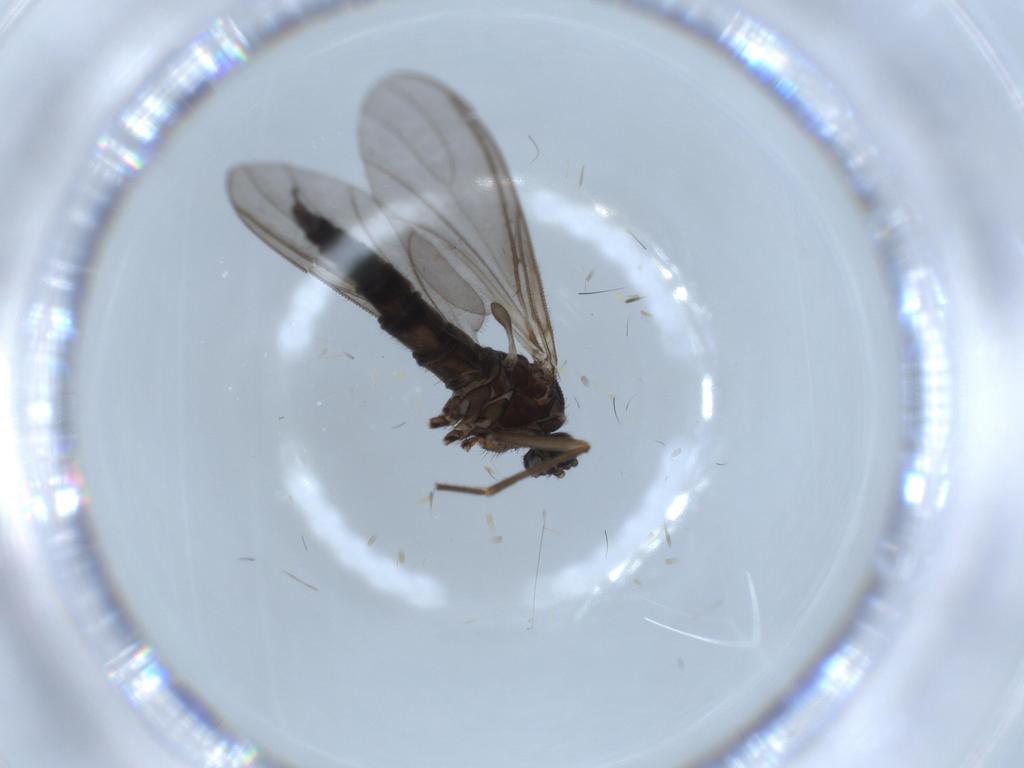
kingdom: Animalia
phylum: Arthropoda
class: Insecta
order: Diptera
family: Sciaridae
